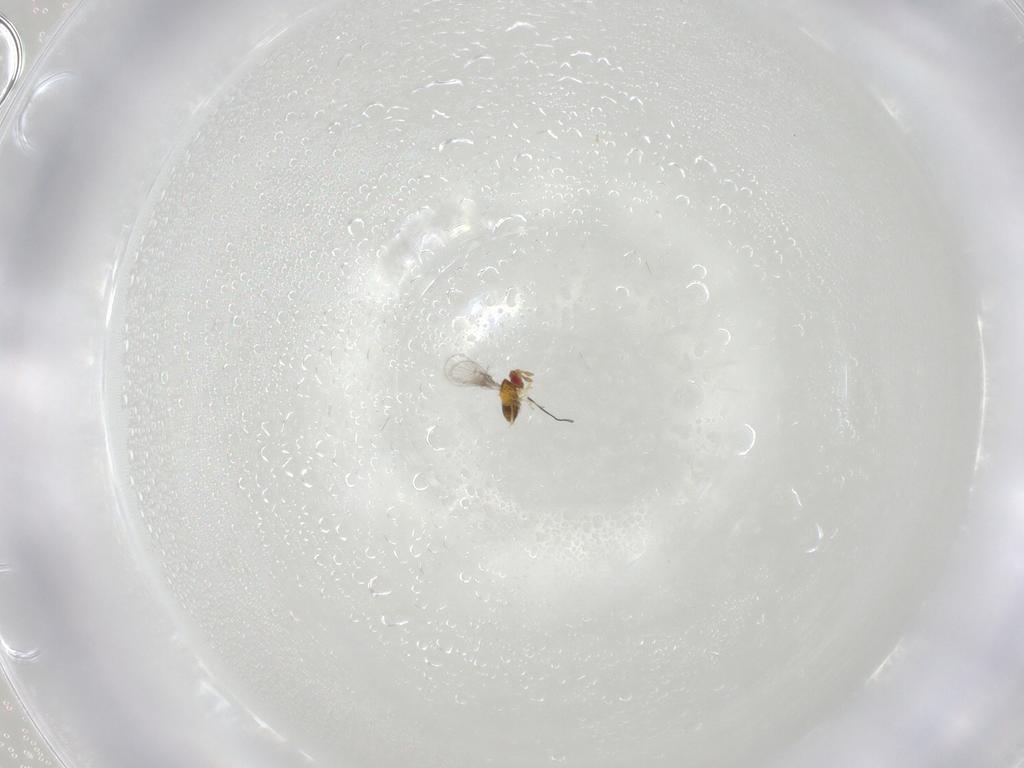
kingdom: Animalia
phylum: Arthropoda
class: Insecta
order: Hymenoptera
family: Trichogrammatidae
